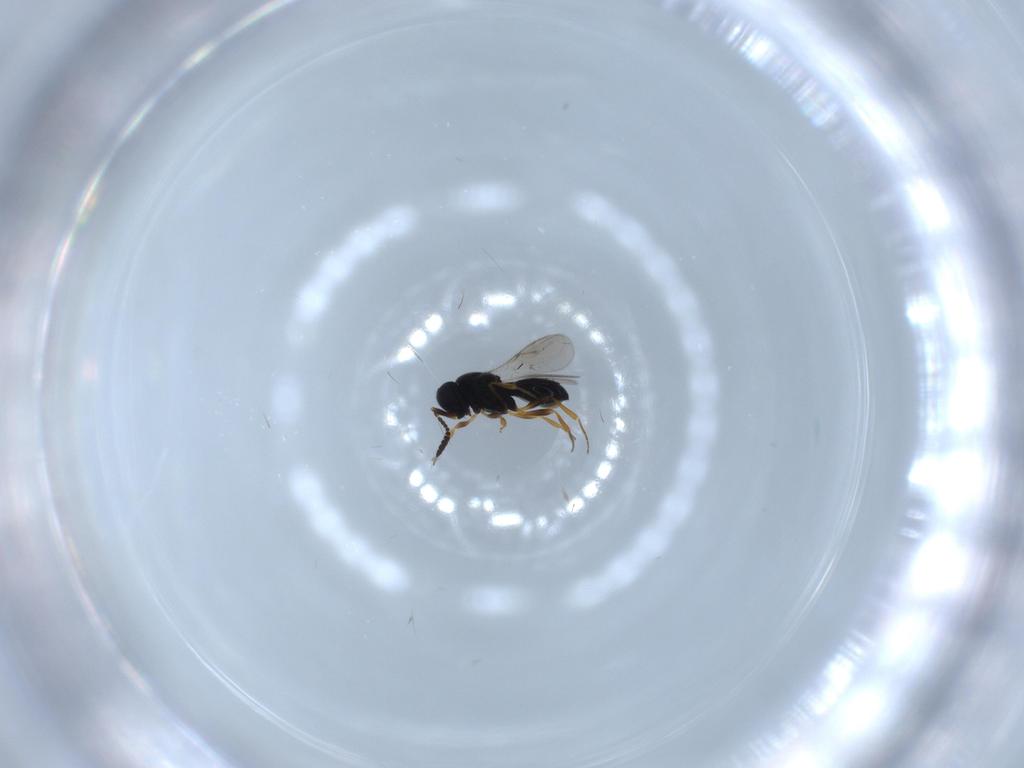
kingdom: Animalia
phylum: Arthropoda
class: Insecta
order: Hymenoptera
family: Scelionidae
